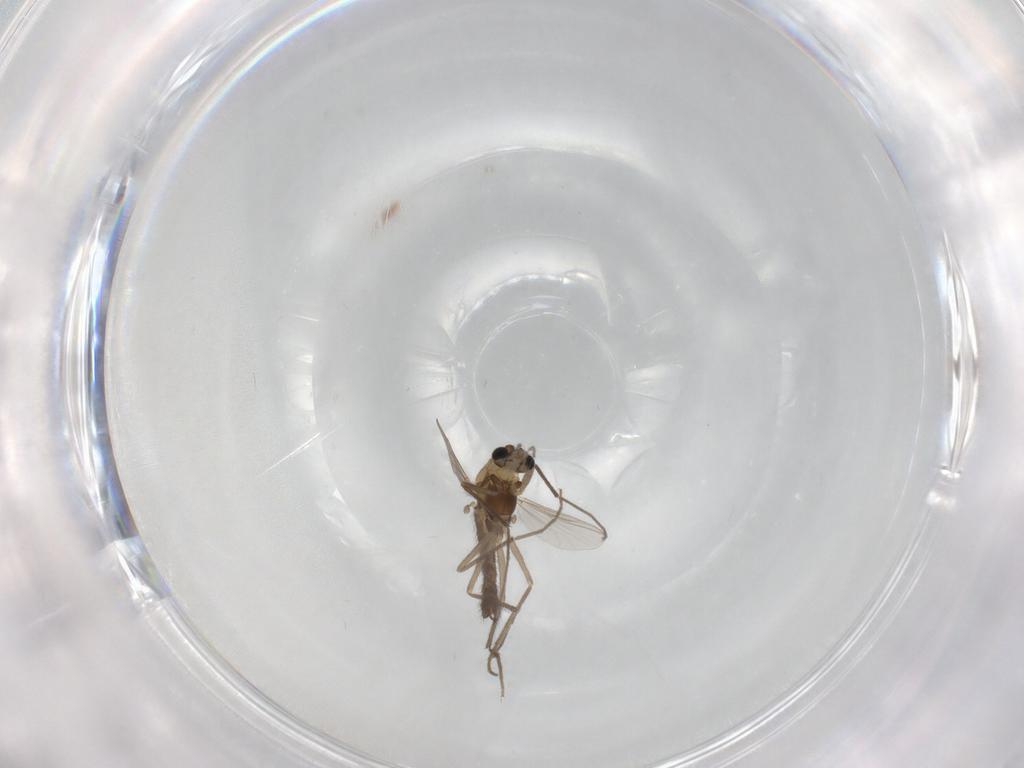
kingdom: Animalia
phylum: Arthropoda
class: Insecta
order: Diptera
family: Chironomidae
